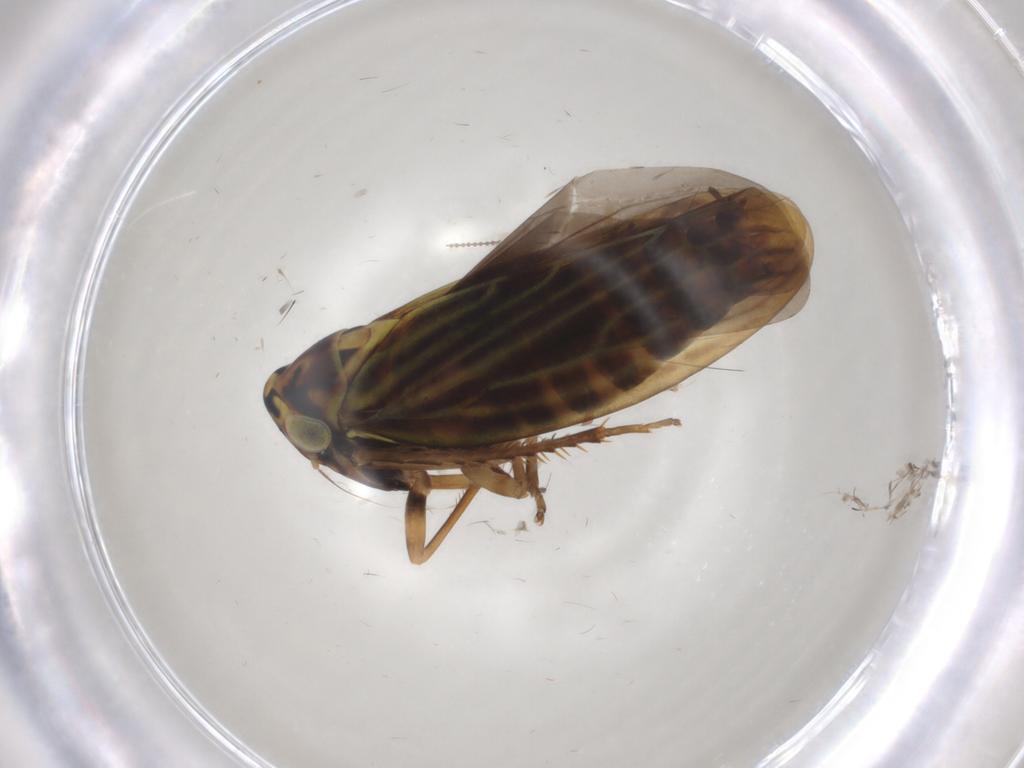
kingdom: Animalia
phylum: Arthropoda
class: Insecta
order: Hemiptera
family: Cicadellidae
